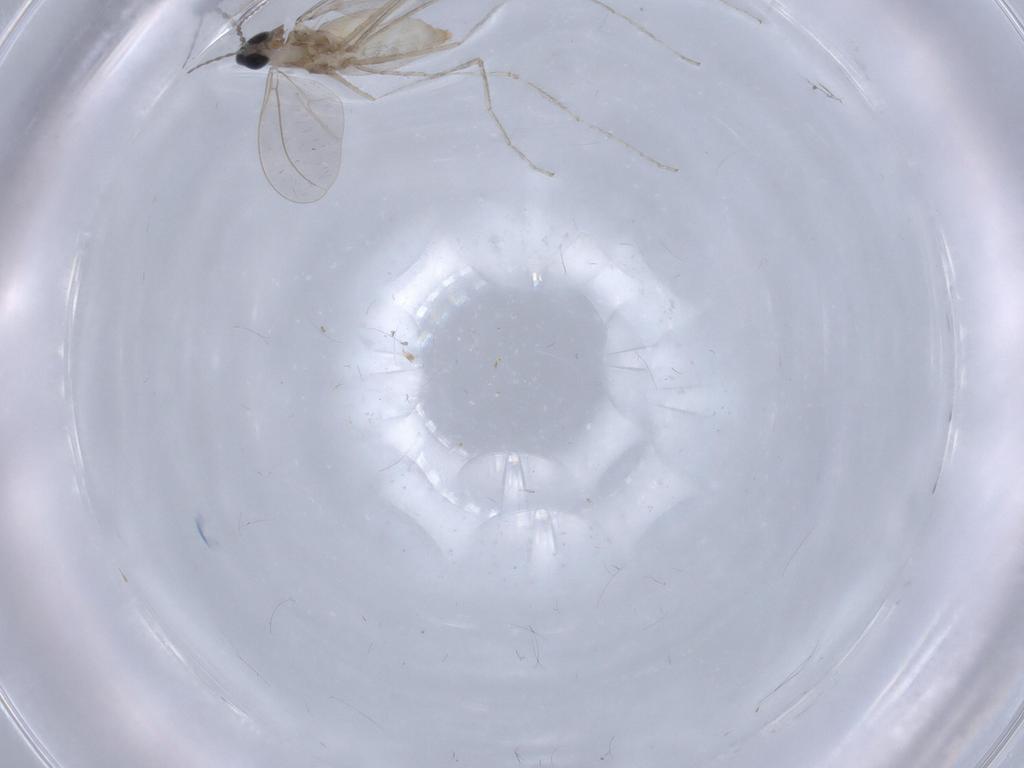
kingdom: Animalia
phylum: Arthropoda
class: Insecta
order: Diptera
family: Cecidomyiidae
